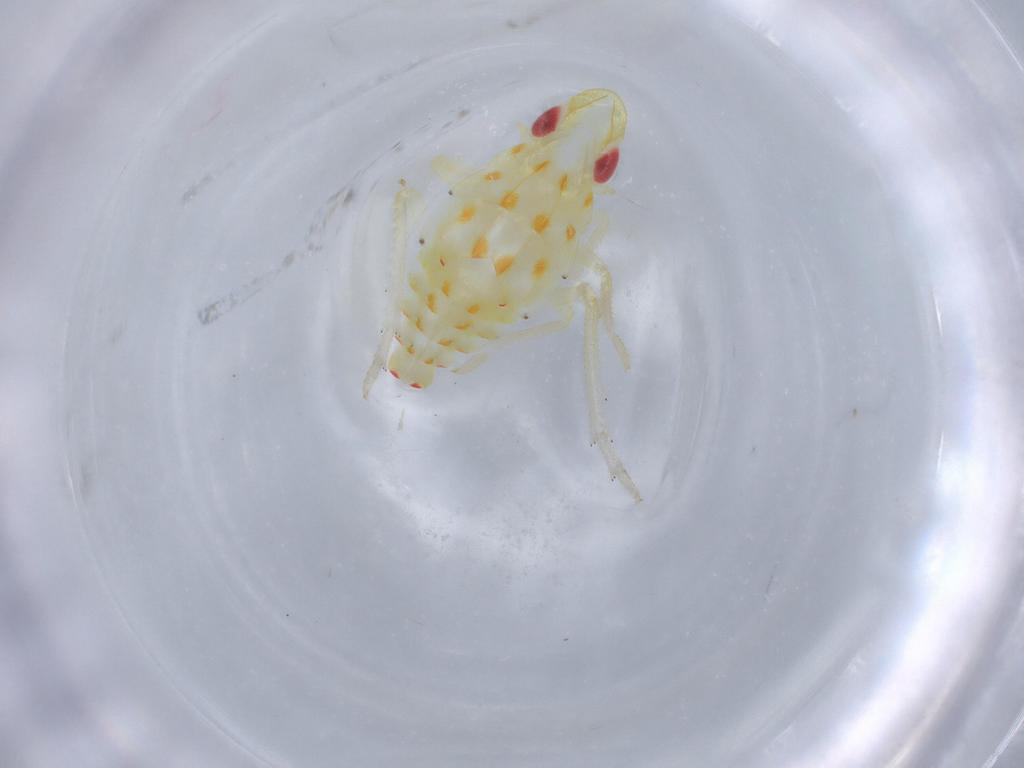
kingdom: Animalia
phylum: Arthropoda
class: Insecta
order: Hemiptera
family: Tropiduchidae
